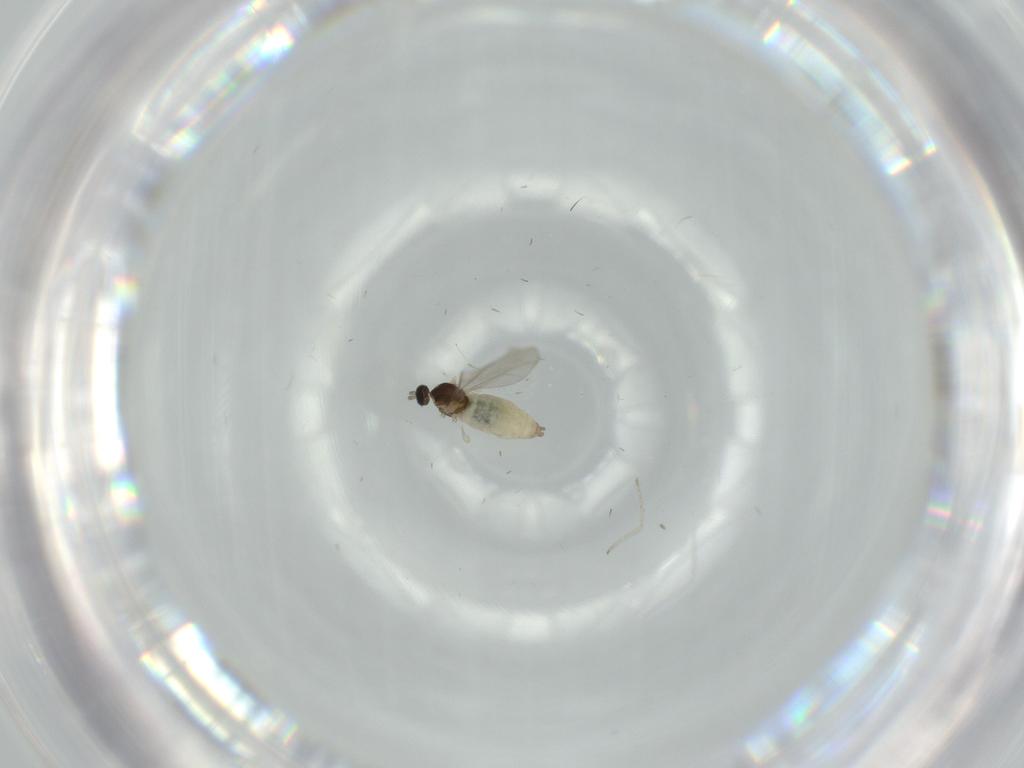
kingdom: Animalia
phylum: Arthropoda
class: Insecta
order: Diptera
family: Cecidomyiidae
